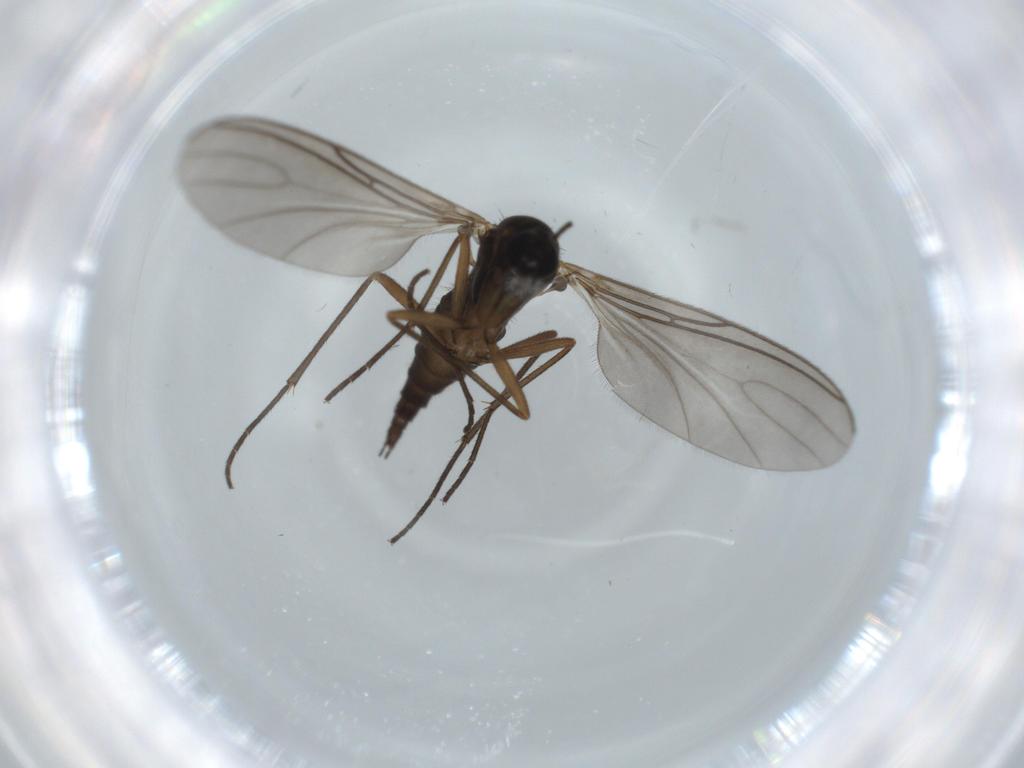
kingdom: Animalia
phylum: Arthropoda
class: Insecta
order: Diptera
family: Sciaridae
